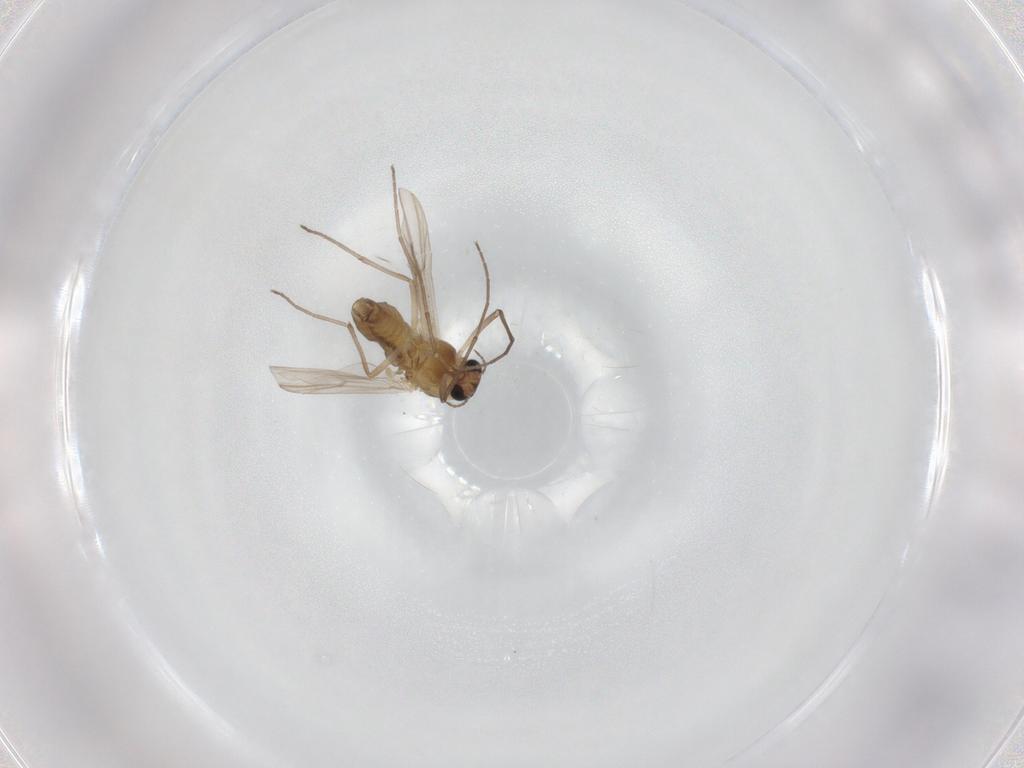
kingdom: Animalia
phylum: Arthropoda
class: Insecta
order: Diptera
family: Chironomidae
